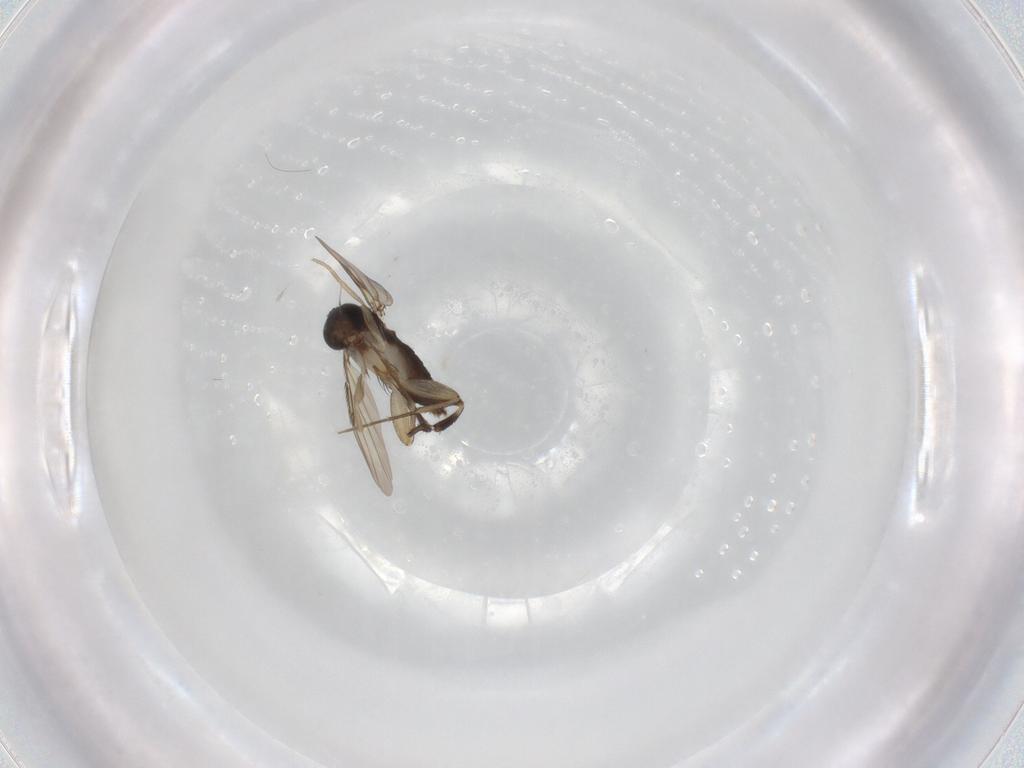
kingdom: Animalia
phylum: Arthropoda
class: Insecta
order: Diptera
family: Phoridae
